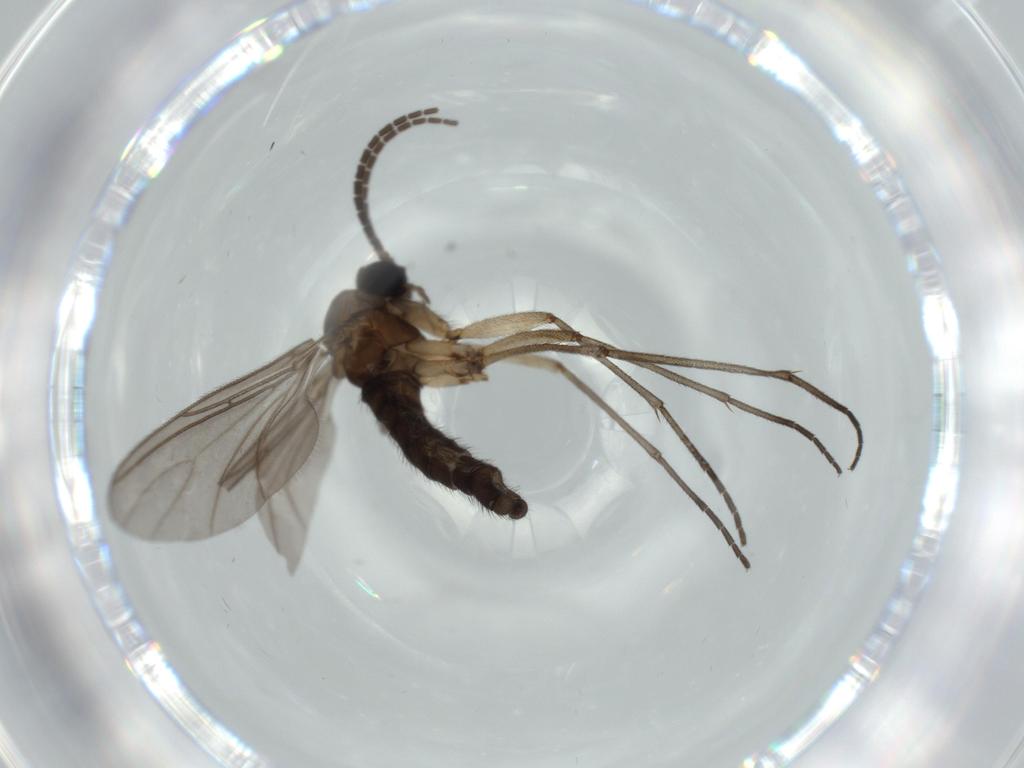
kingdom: Animalia
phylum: Arthropoda
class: Insecta
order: Diptera
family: Sciaridae
